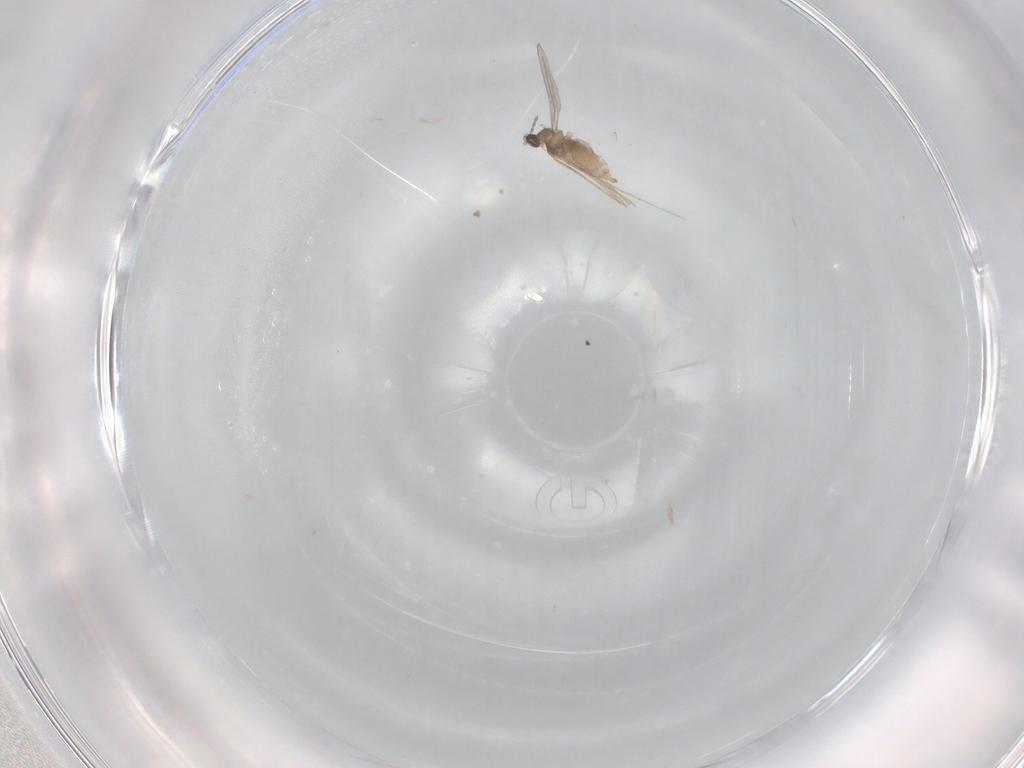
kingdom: Animalia
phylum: Arthropoda
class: Insecta
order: Diptera
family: Cecidomyiidae
